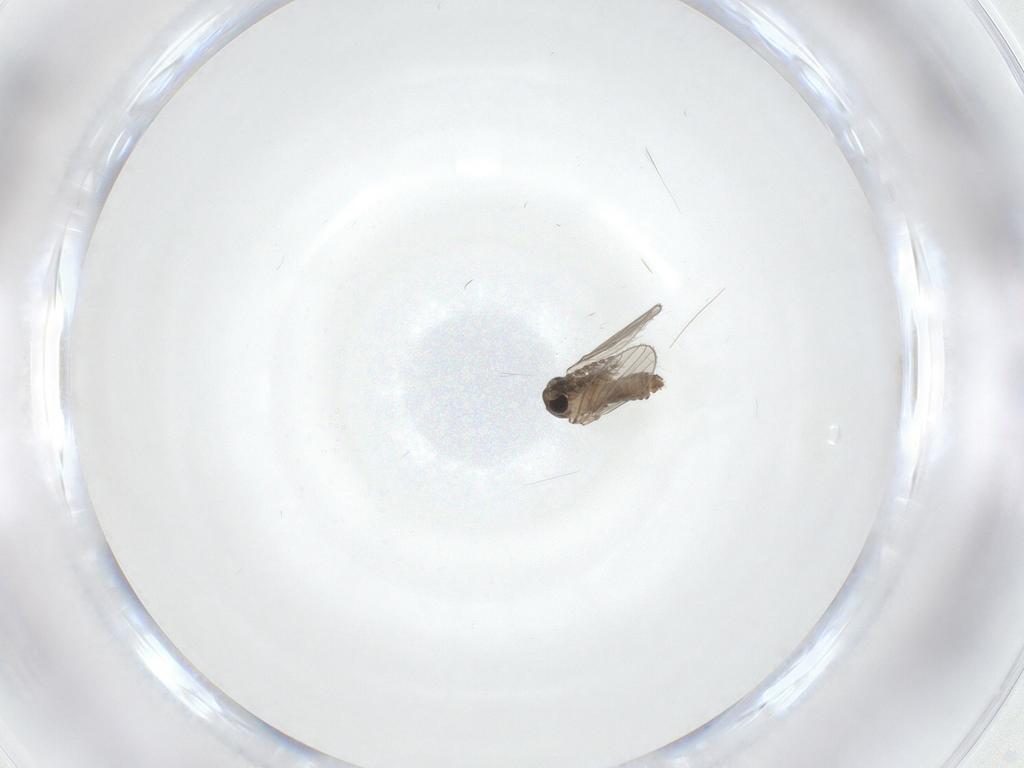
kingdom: Animalia
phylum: Arthropoda
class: Insecta
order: Diptera
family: Psychodidae
